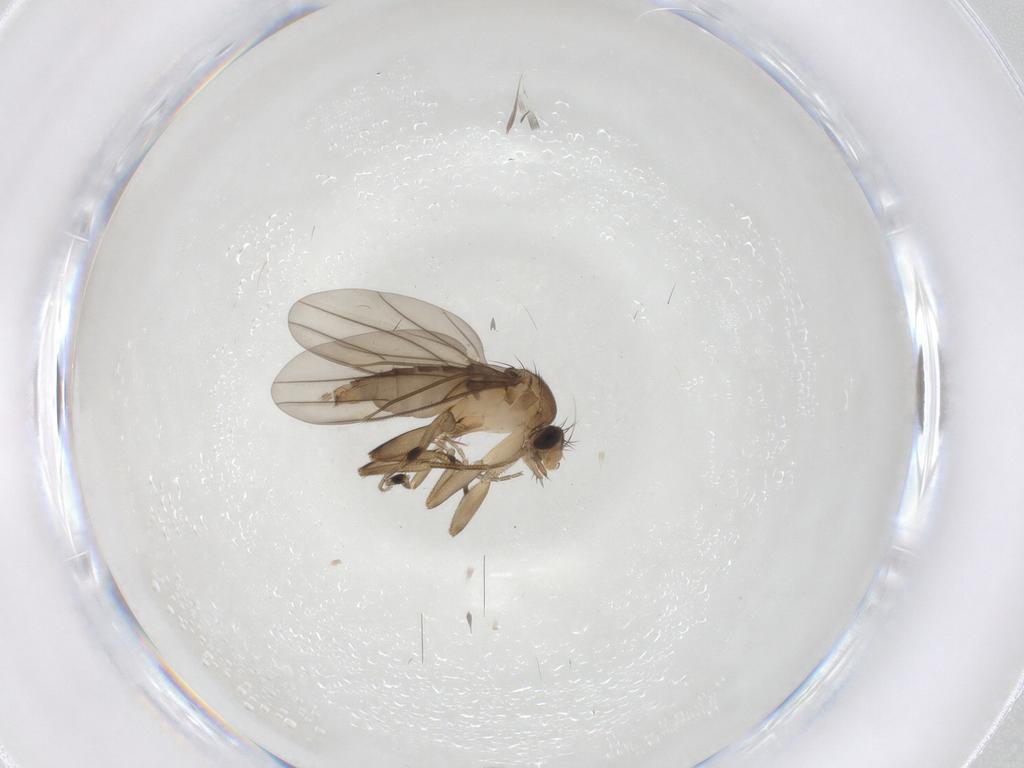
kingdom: Animalia
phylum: Arthropoda
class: Insecta
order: Diptera
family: Phoridae
